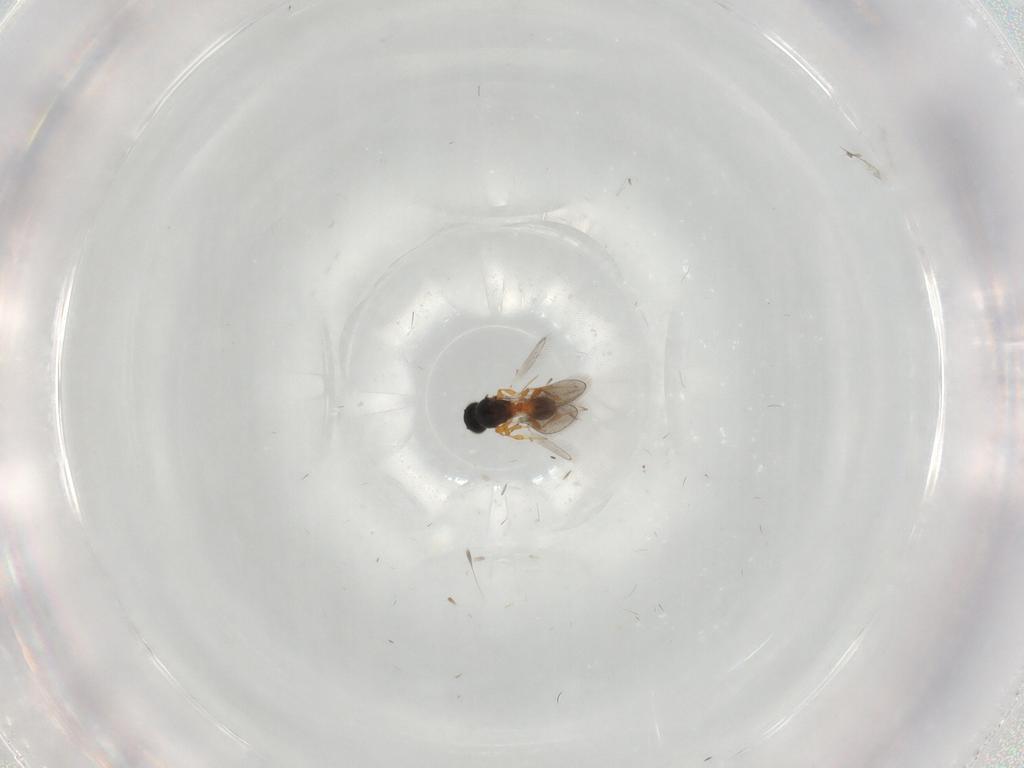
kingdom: Animalia
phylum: Arthropoda
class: Insecta
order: Hymenoptera
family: Platygastridae
